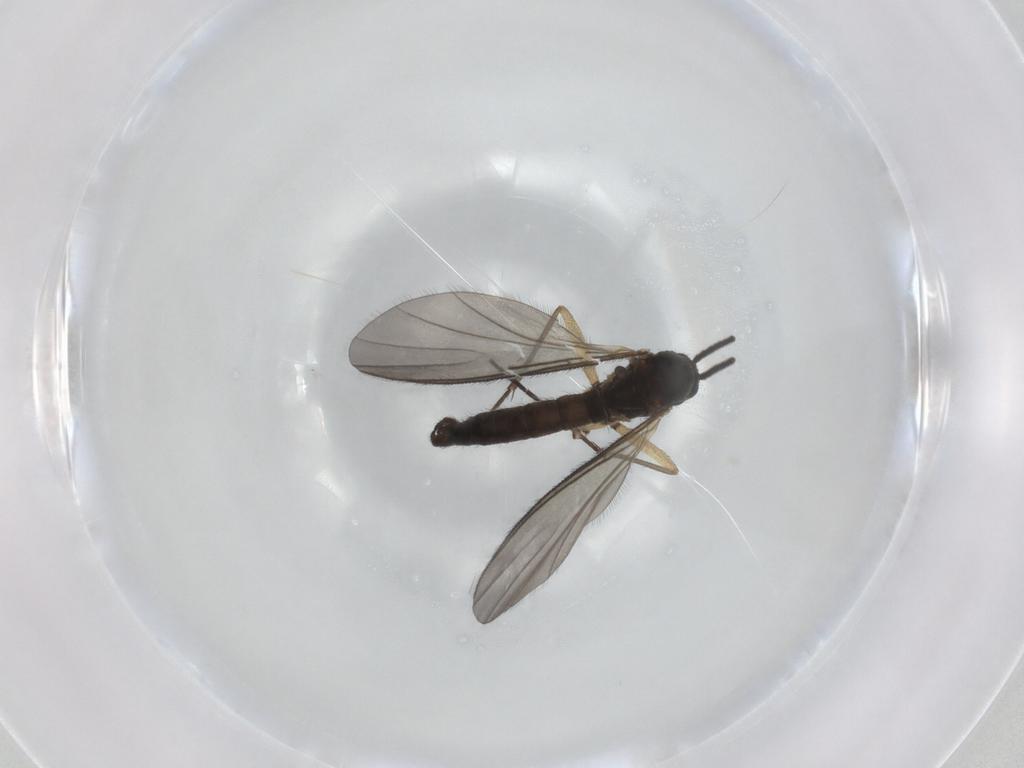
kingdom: Animalia
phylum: Arthropoda
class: Insecta
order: Diptera
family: Sciaridae
